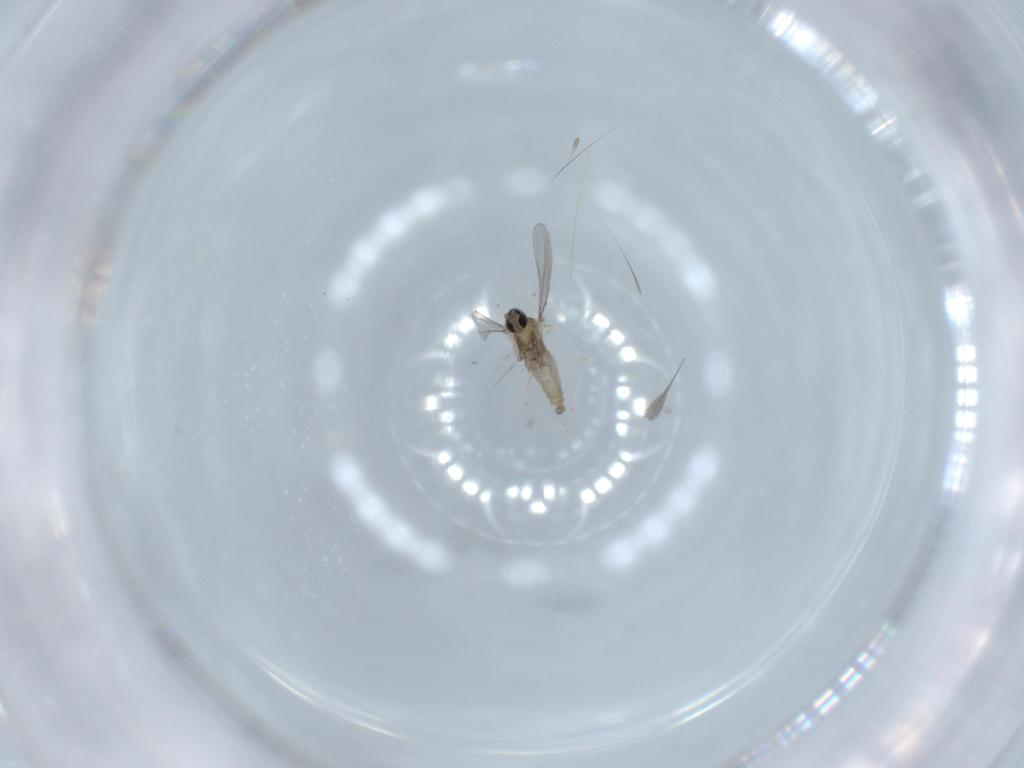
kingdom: Animalia
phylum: Arthropoda
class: Insecta
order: Diptera
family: Cecidomyiidae
